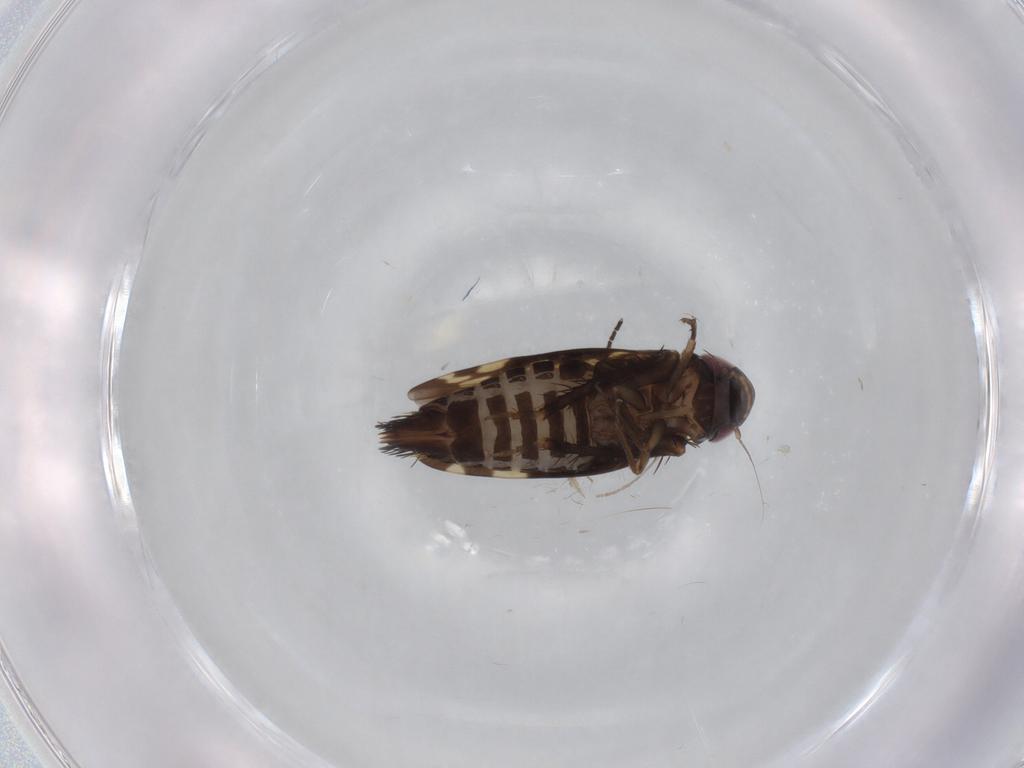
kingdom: Animalia
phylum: Arthropoda
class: Insecta
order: Hemiptera
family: Cicadellidae
